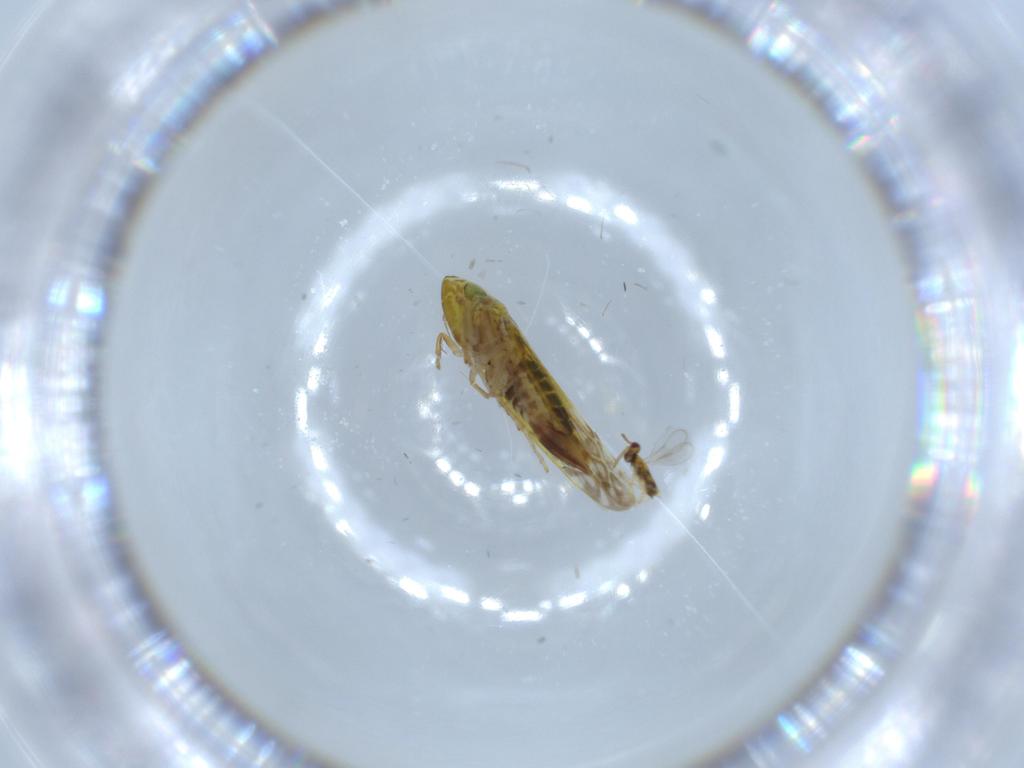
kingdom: Animalia
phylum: Arthropoda
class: Insecta
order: Hymenoptera
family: Aphelinidae
